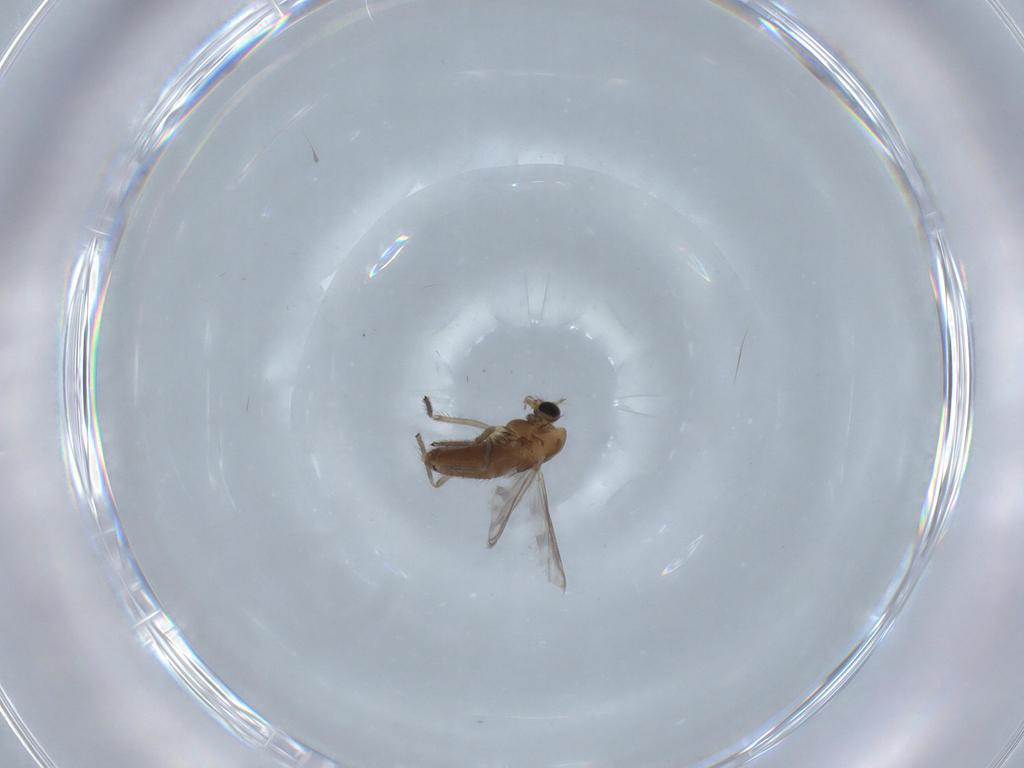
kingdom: Animalia
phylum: Arthropoda
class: Insecta
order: Diptera
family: Chironomidae
